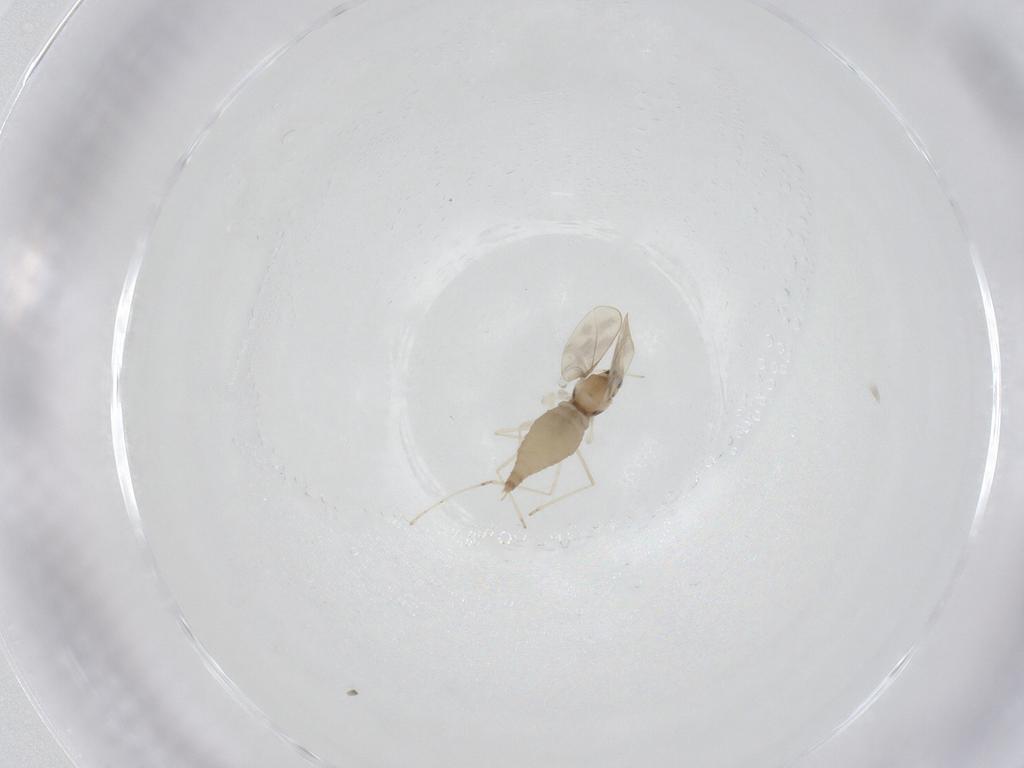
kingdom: Animalia
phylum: Arthropoda
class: Insecta
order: Diptera
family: Cecidomyiidae
